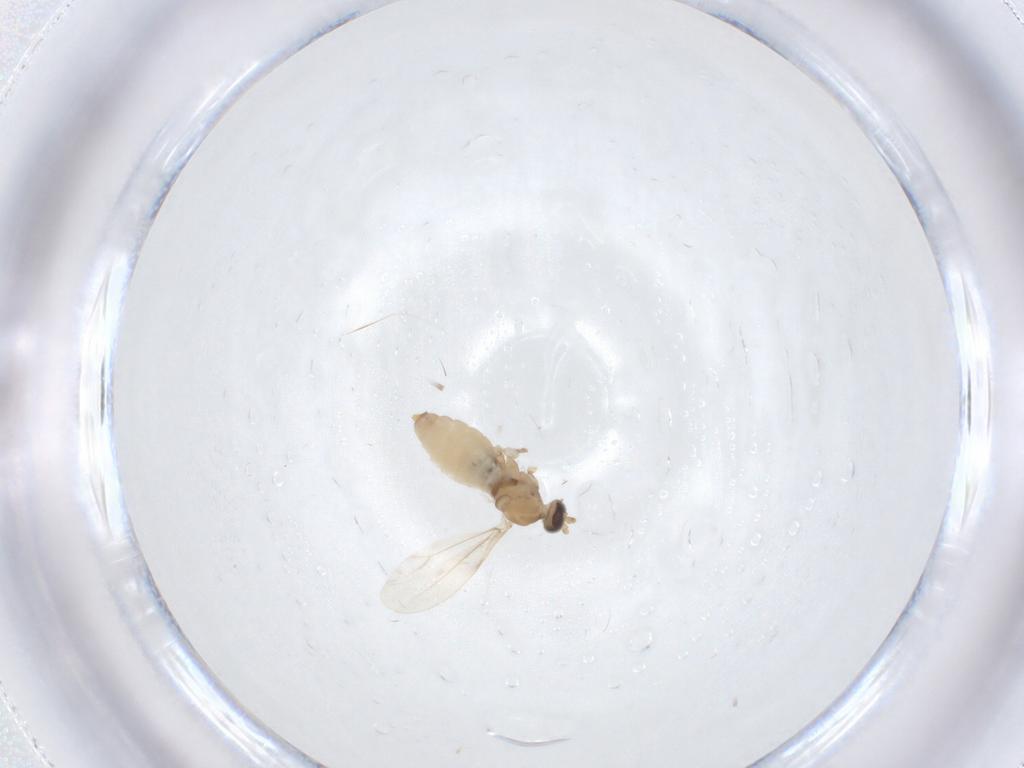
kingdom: Animalia
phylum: Arthropoda
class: Insecta
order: Diptera
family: Cecidomyiidae
